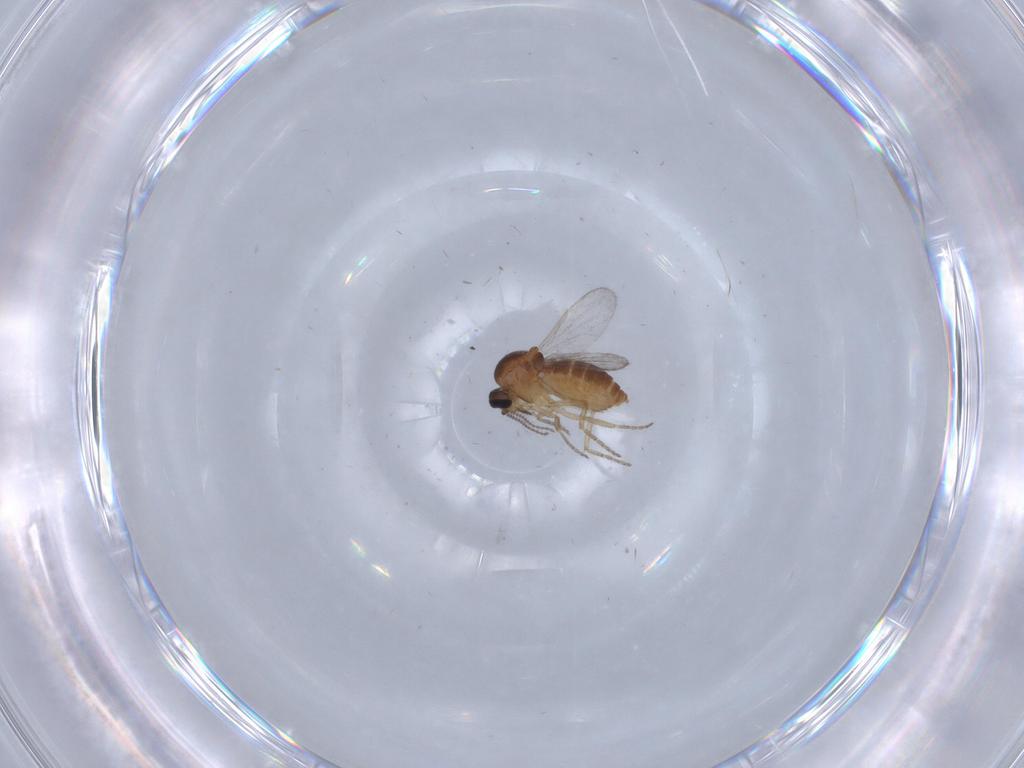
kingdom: Animalia
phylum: Arthropoda
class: Insecta
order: Diptera
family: Ceratopogonidae
